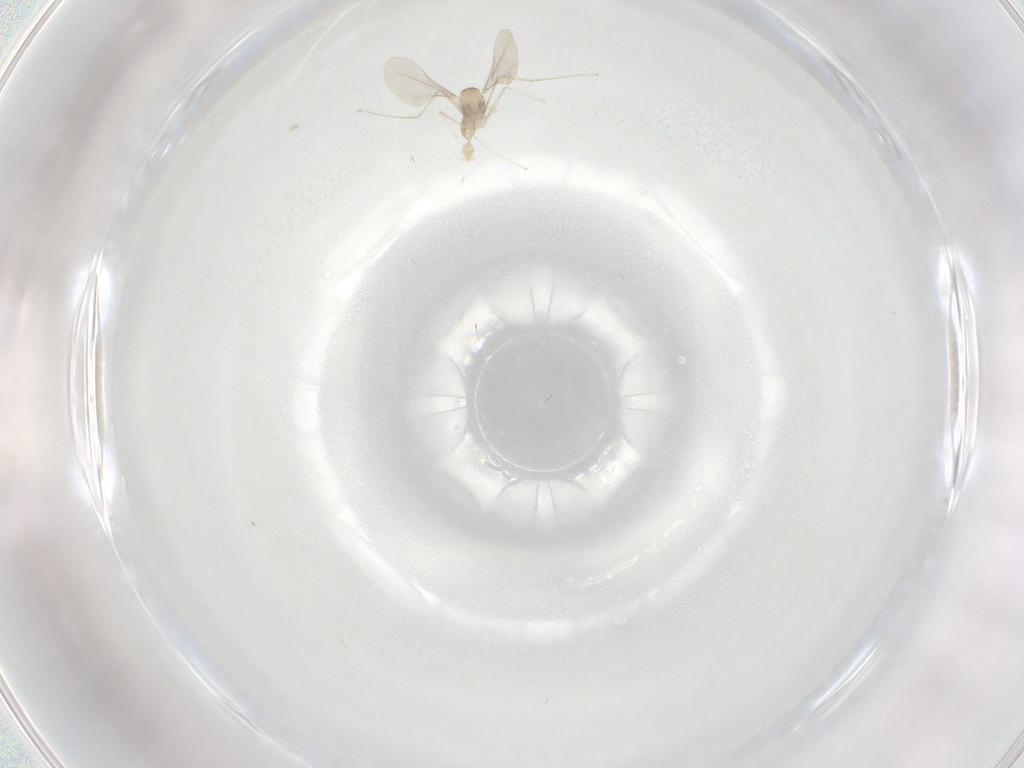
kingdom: Animalia
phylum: Arthropoda
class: Insecta
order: Diptera
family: Cecidomyiidae
